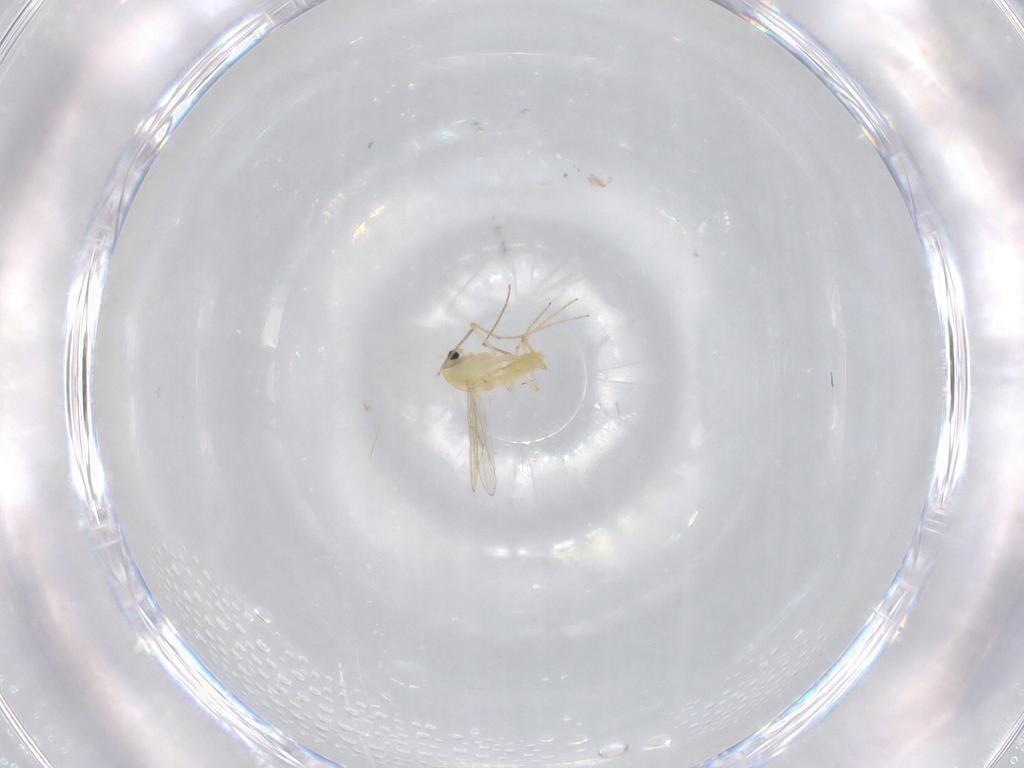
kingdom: Animalia
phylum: Arthropoda
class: Insecta
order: Diptera
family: Chironomidae
